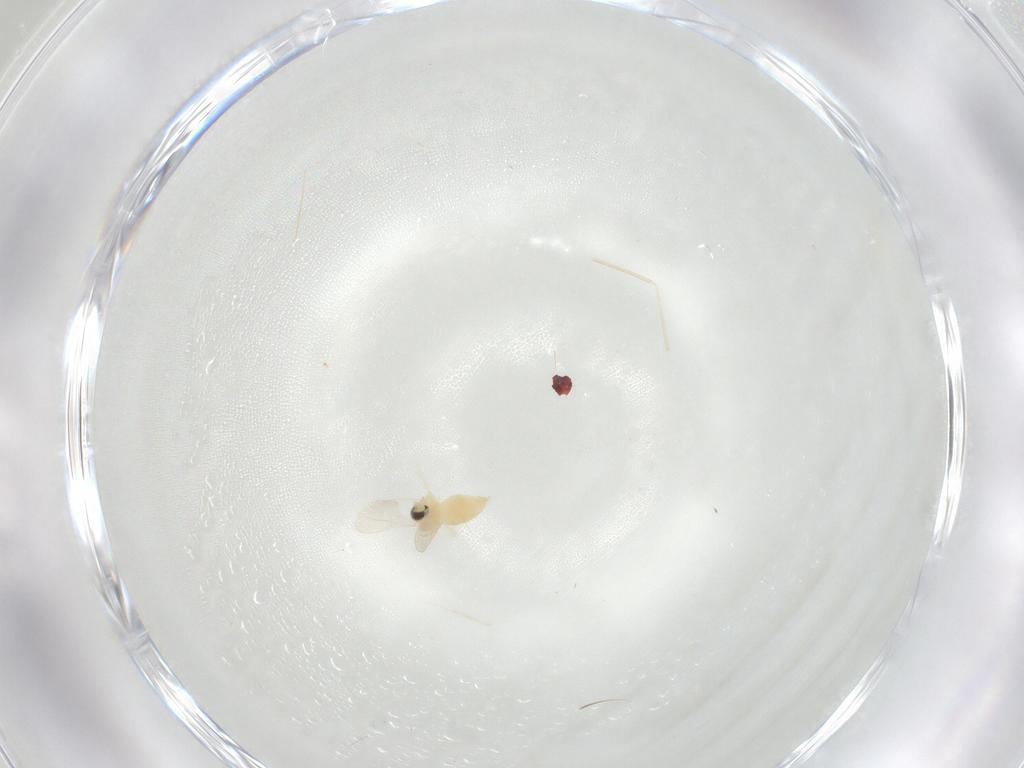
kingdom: Animalia
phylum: Arthropoda
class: Insecta
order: Diptera
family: Cecidomyiidae
